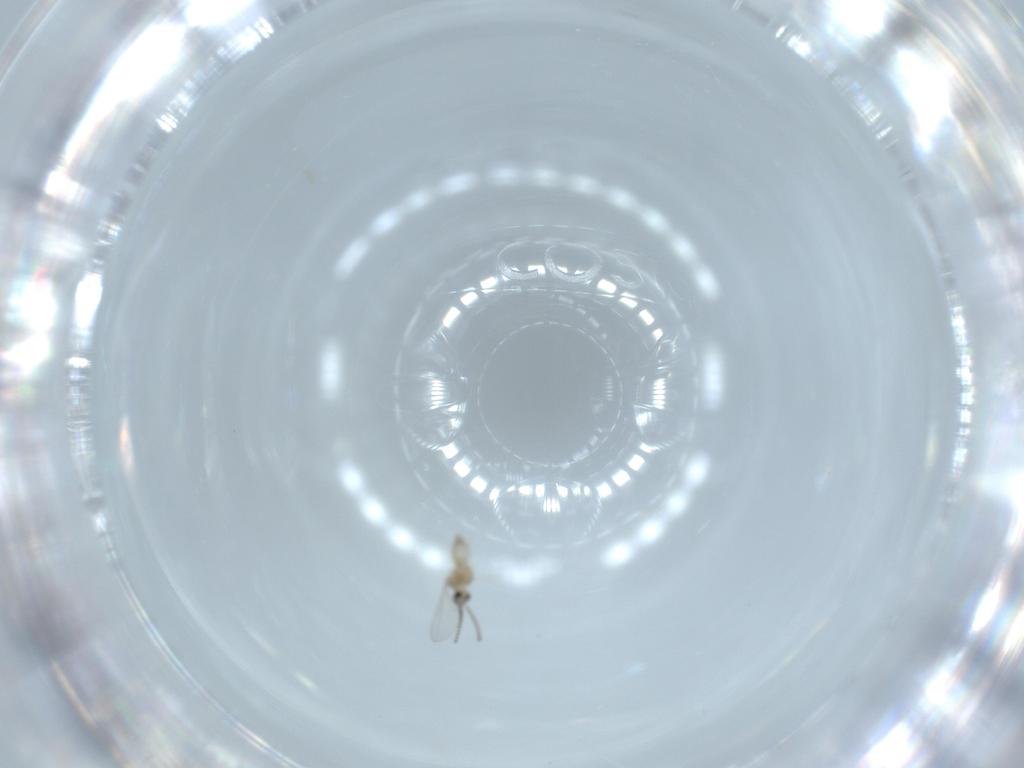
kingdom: Animalia
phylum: Arthropoda
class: Insecta
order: Diptera
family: Cecidomyiidae
